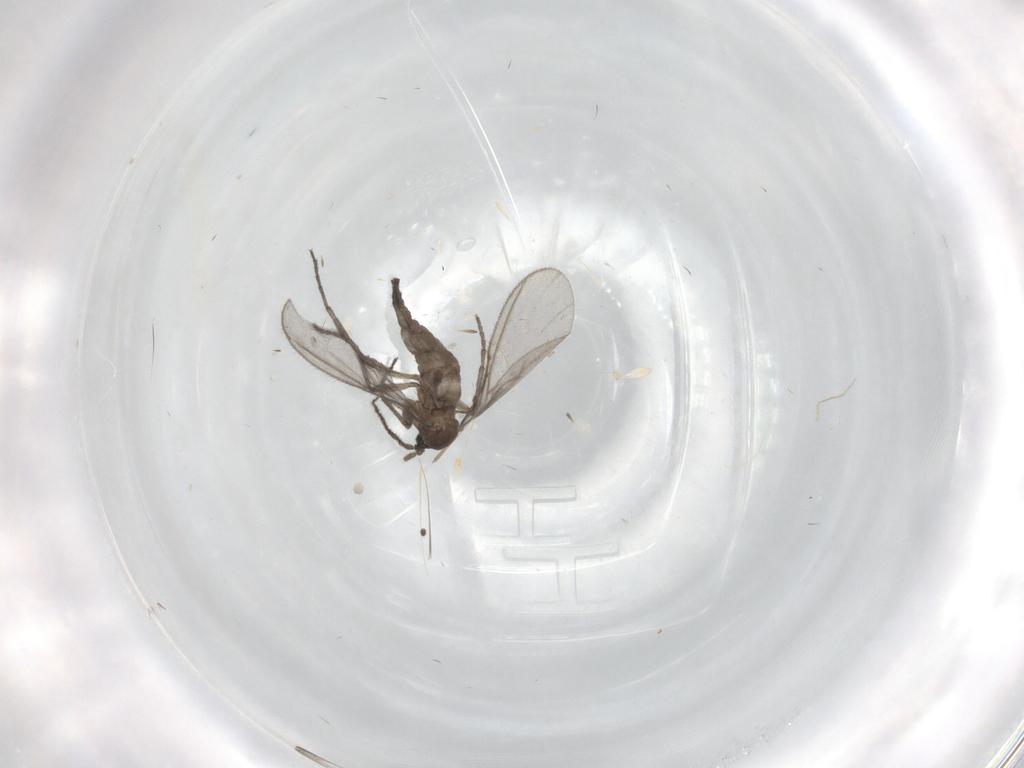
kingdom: Animalia
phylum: Arthropoda
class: Insecta
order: Diptera
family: Sciaridae
